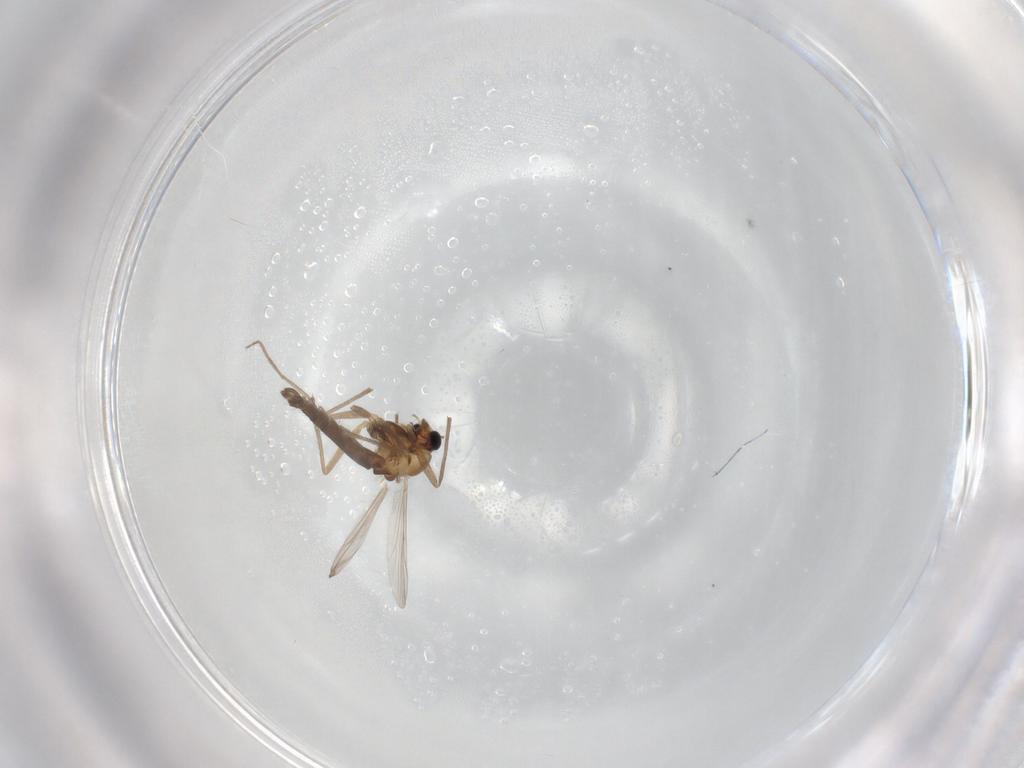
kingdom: Animalia
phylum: Arthropoda
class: Insecta
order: Diptera
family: Chironomidae
